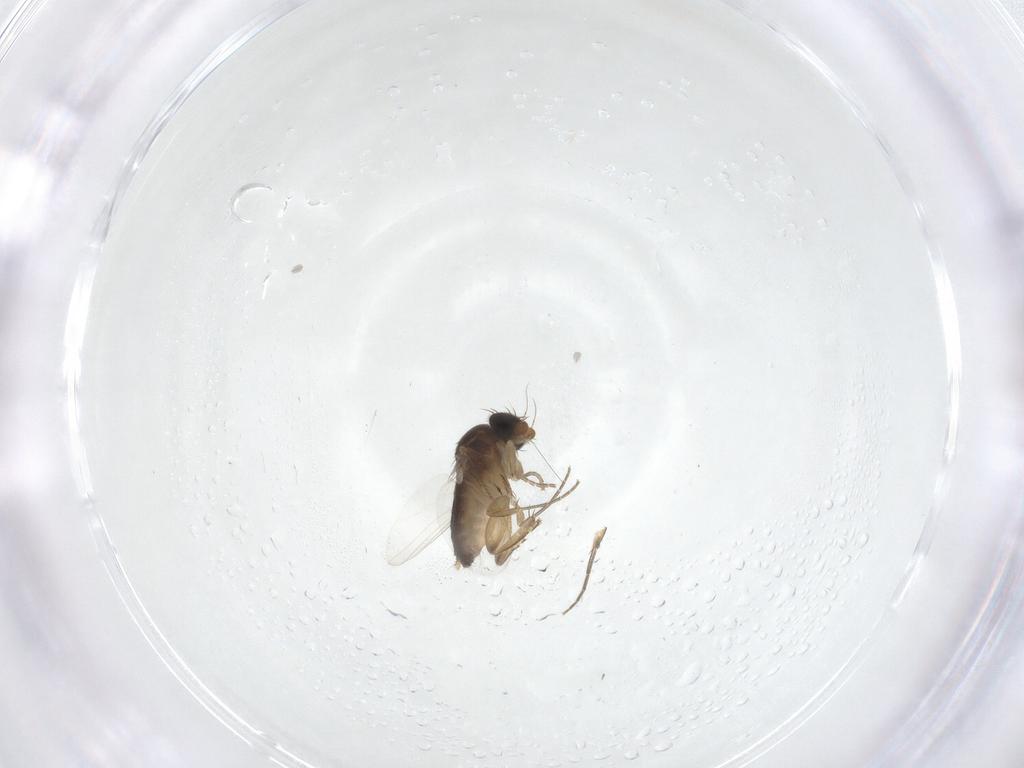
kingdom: Animalia
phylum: Arthropoda
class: Insecta
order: Diptera
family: Phoridae
